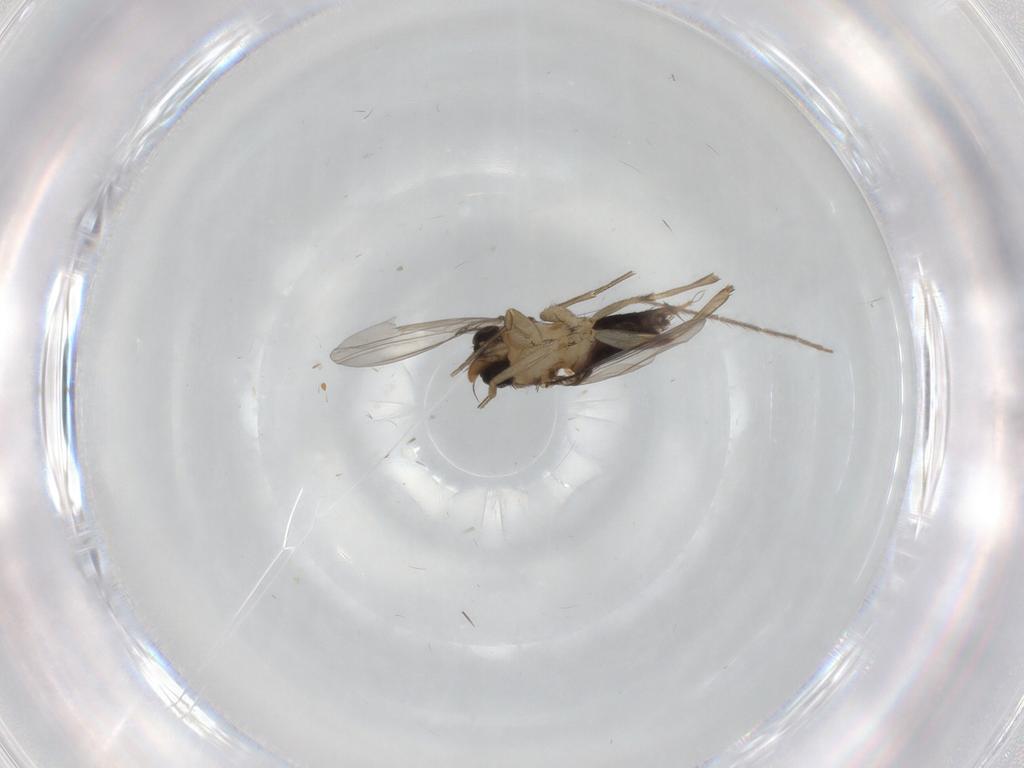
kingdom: Animalia
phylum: Arthropoda
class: Insecta
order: Diptera
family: Phoridae
